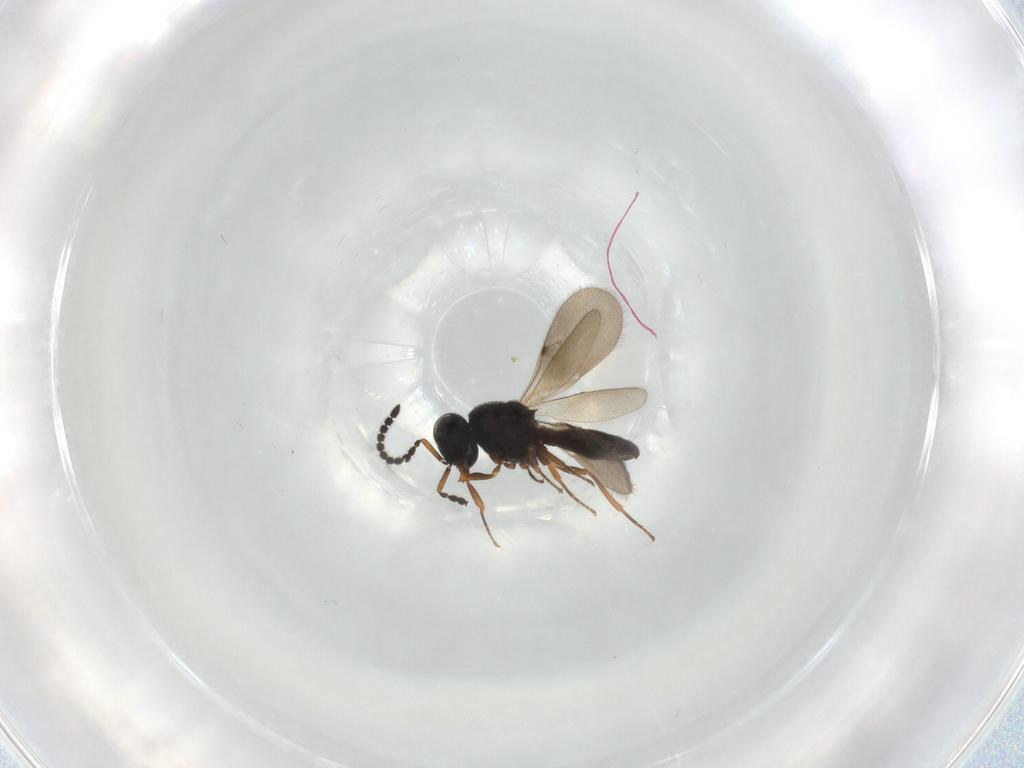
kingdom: Animalia
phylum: Arthropoda
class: Insecta
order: Hymenoptera
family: Scelionidae
